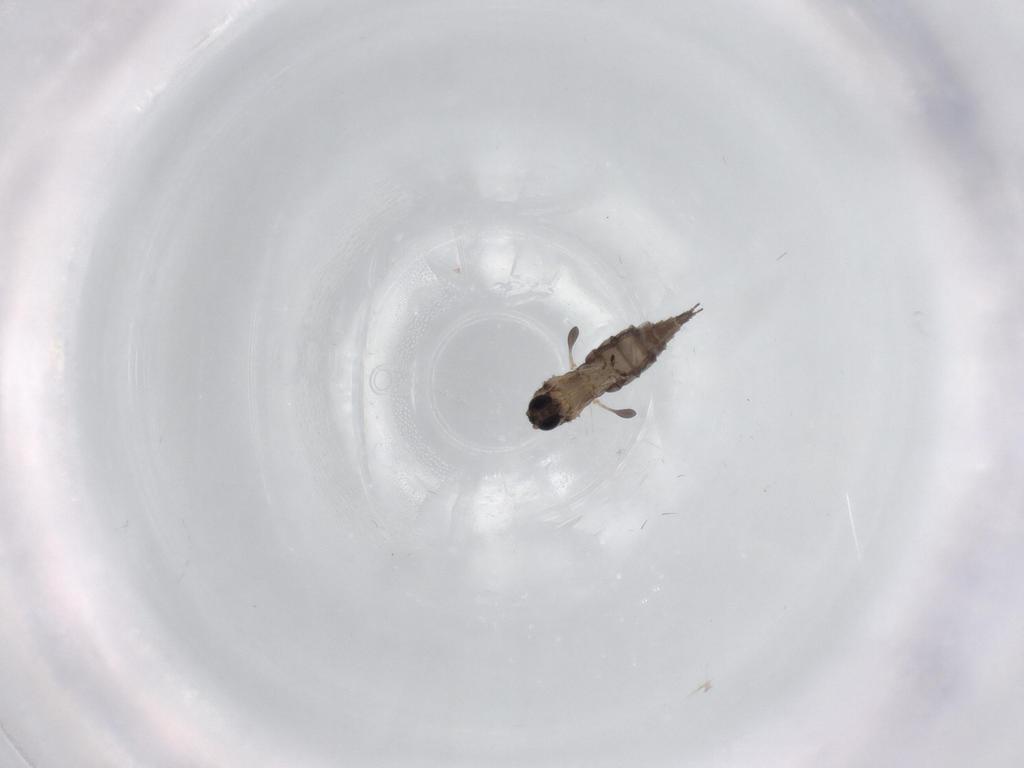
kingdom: Animalia
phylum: Arthropoda
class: Insecta
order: Diptera
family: Sciaridae
